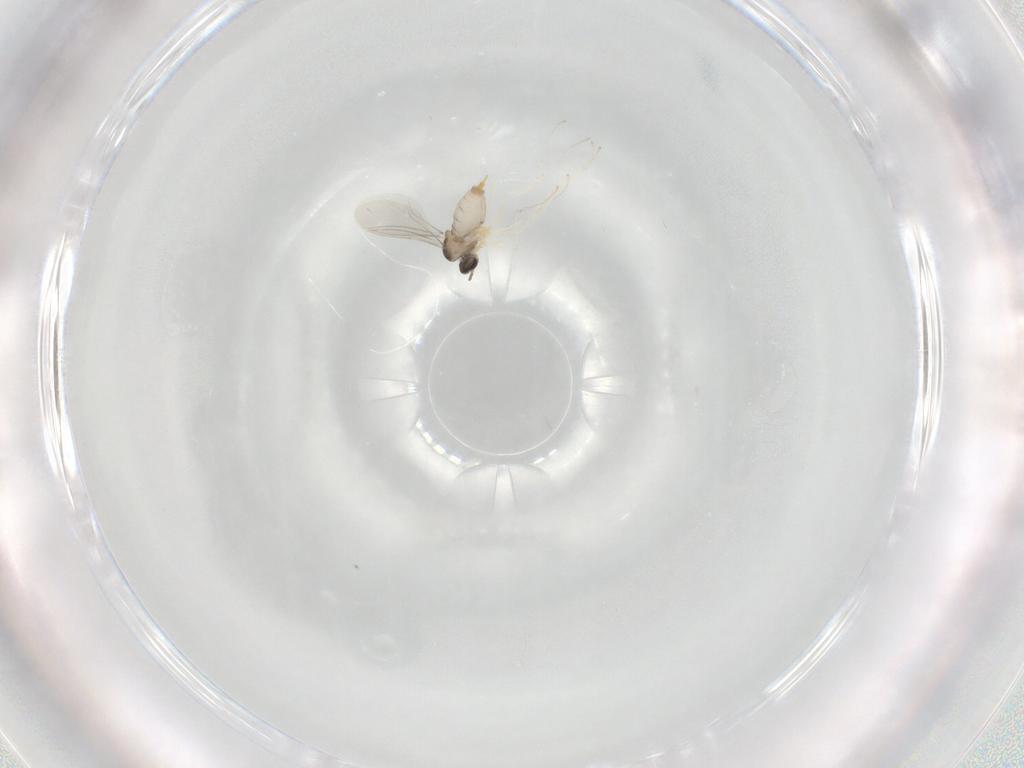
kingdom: Animalia
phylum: Arthropoda
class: Insecta
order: Diptera
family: Cecidomyiidae
